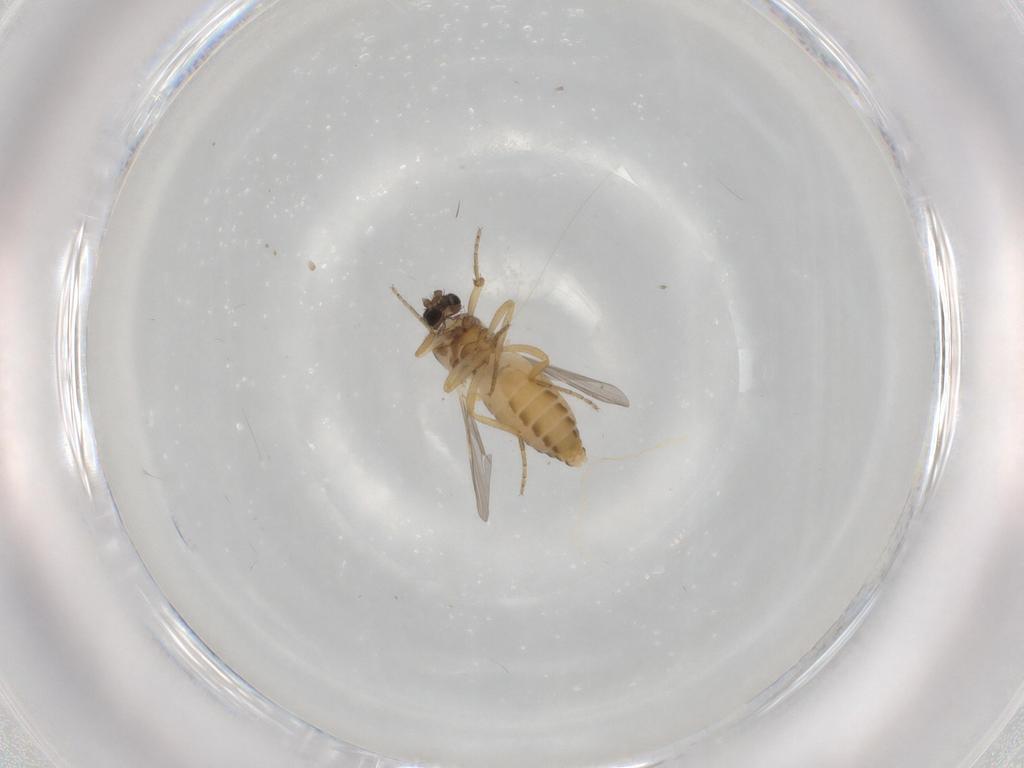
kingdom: Animalia
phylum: Arthropoda
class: Insecta
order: Diptera
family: Ceratopogonidae
